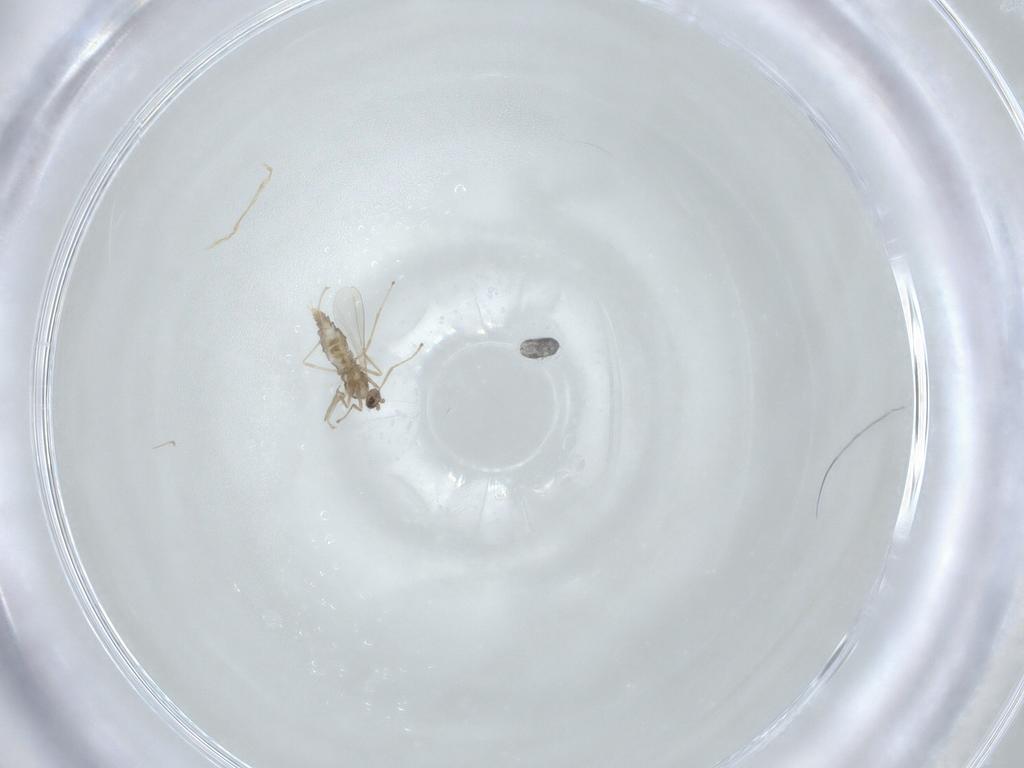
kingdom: Animalia
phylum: Arthropoda
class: Insecta
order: Diptera
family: Cecidomyiidae
